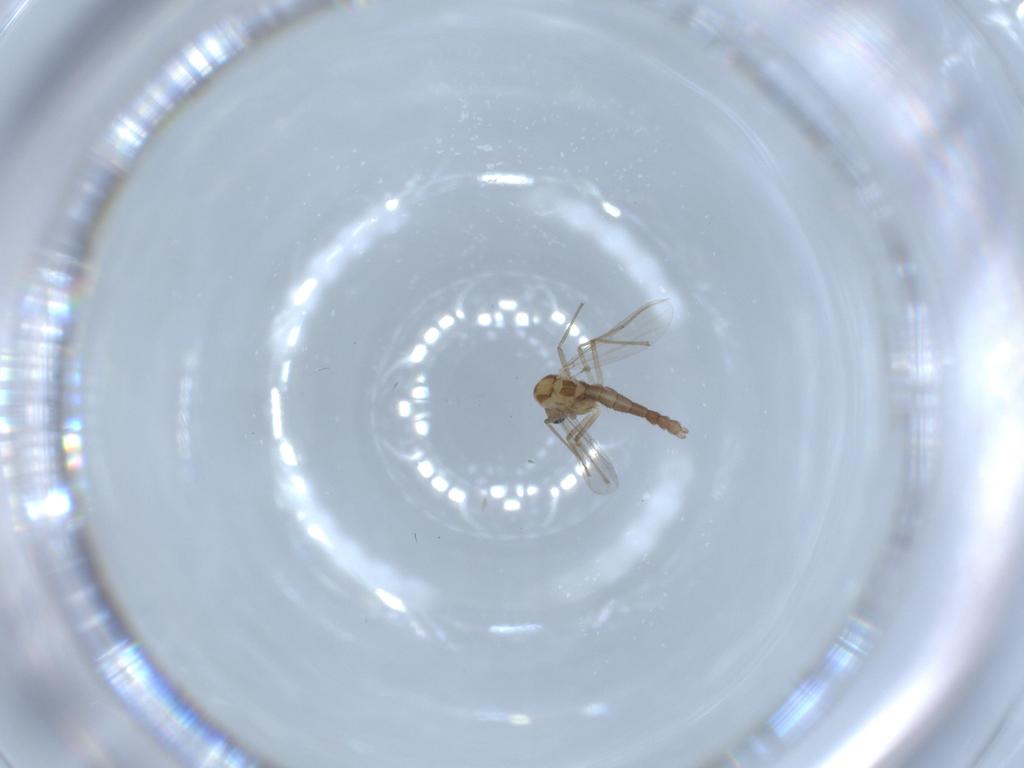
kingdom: Animalia
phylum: Arthropoda
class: Insecta
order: Diptera
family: Chironomidae
